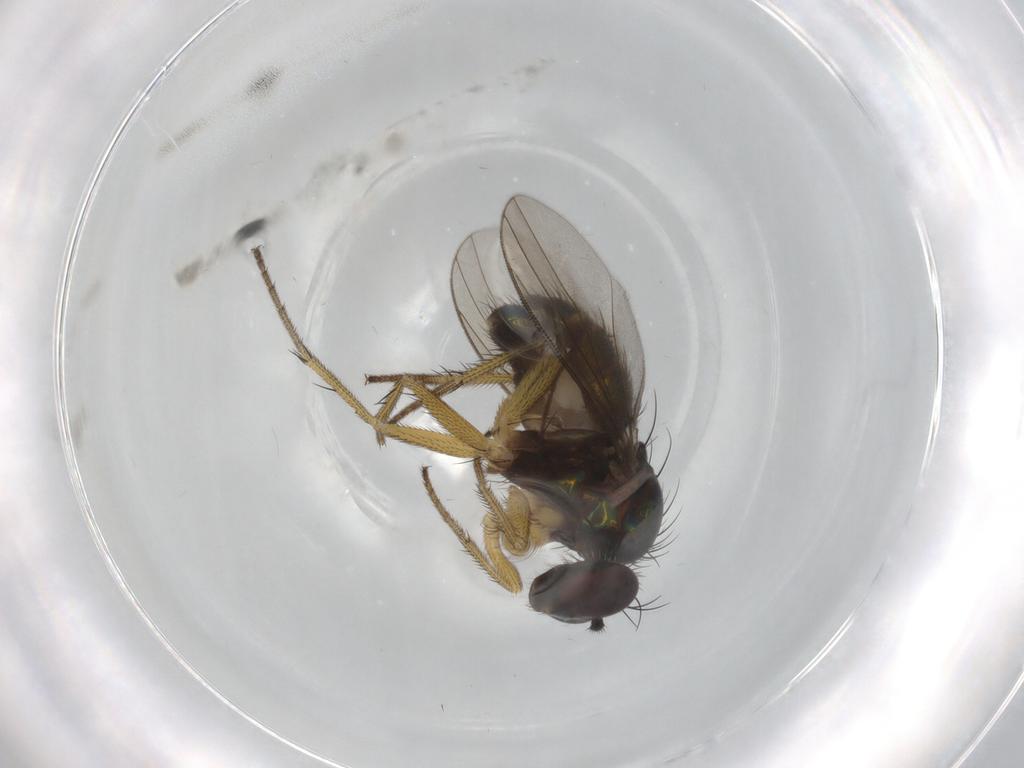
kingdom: Animalia
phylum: Arthropoda
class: Insecta
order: Diptera
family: Dolichopodidae
